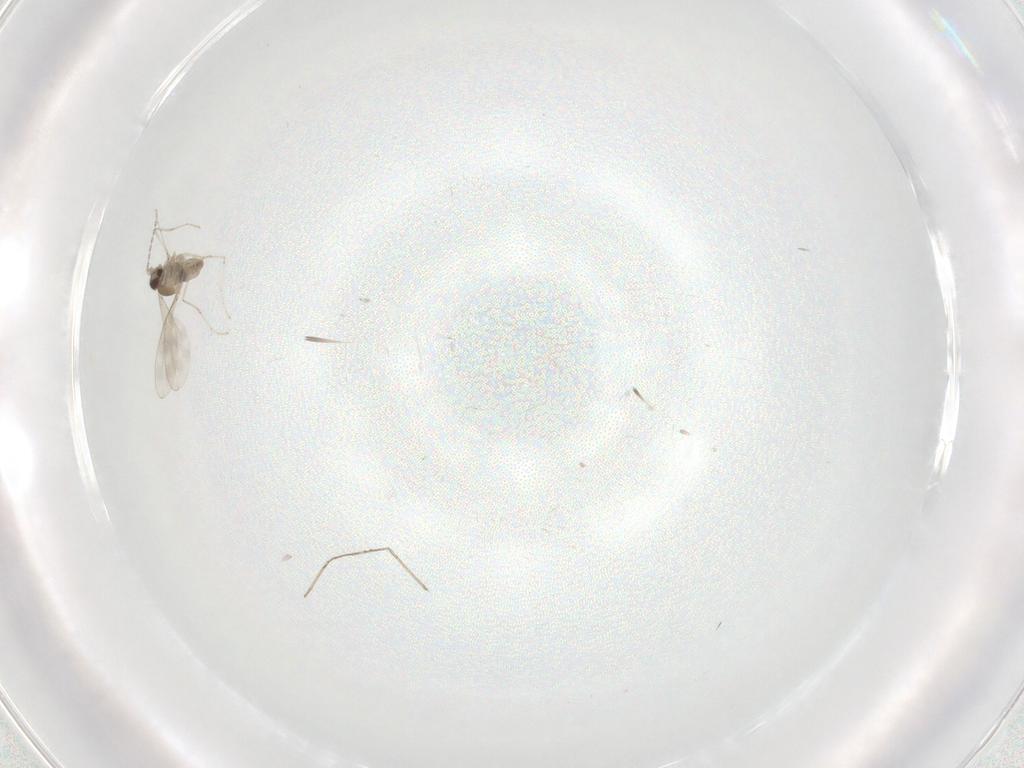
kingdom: Animalia
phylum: Arthropoda
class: Insecta
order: Diptera
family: Cecidomyiidae
